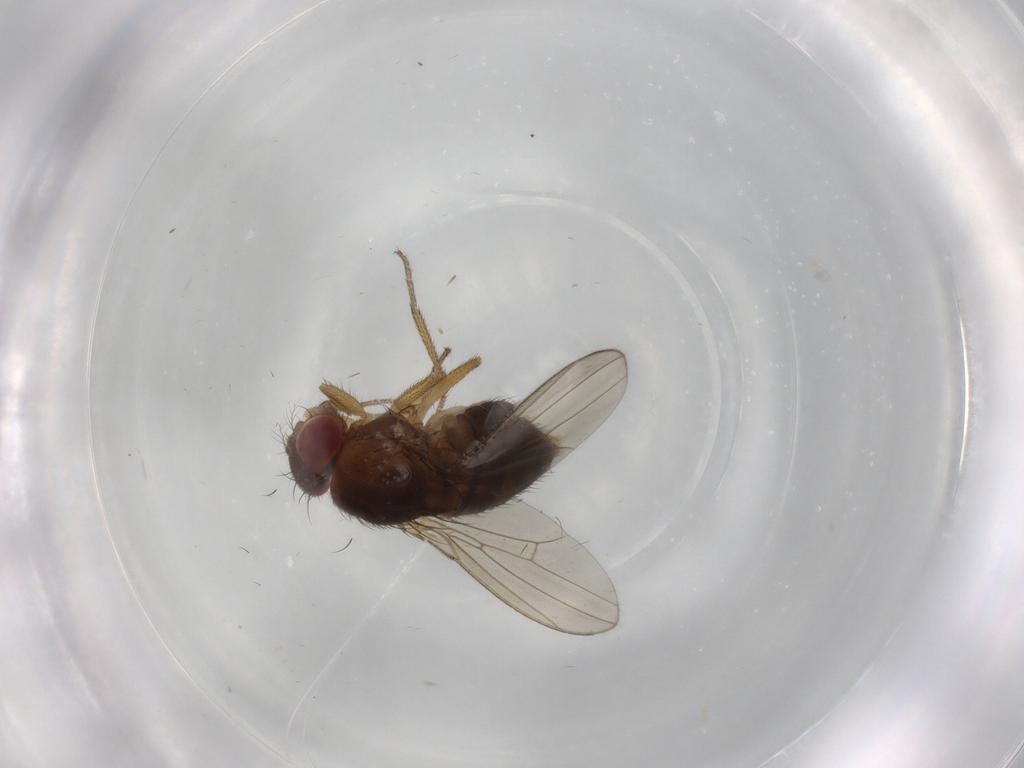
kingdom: Animalia
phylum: Arthropoda
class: Insecta
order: Diptera
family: Drosophilidae
